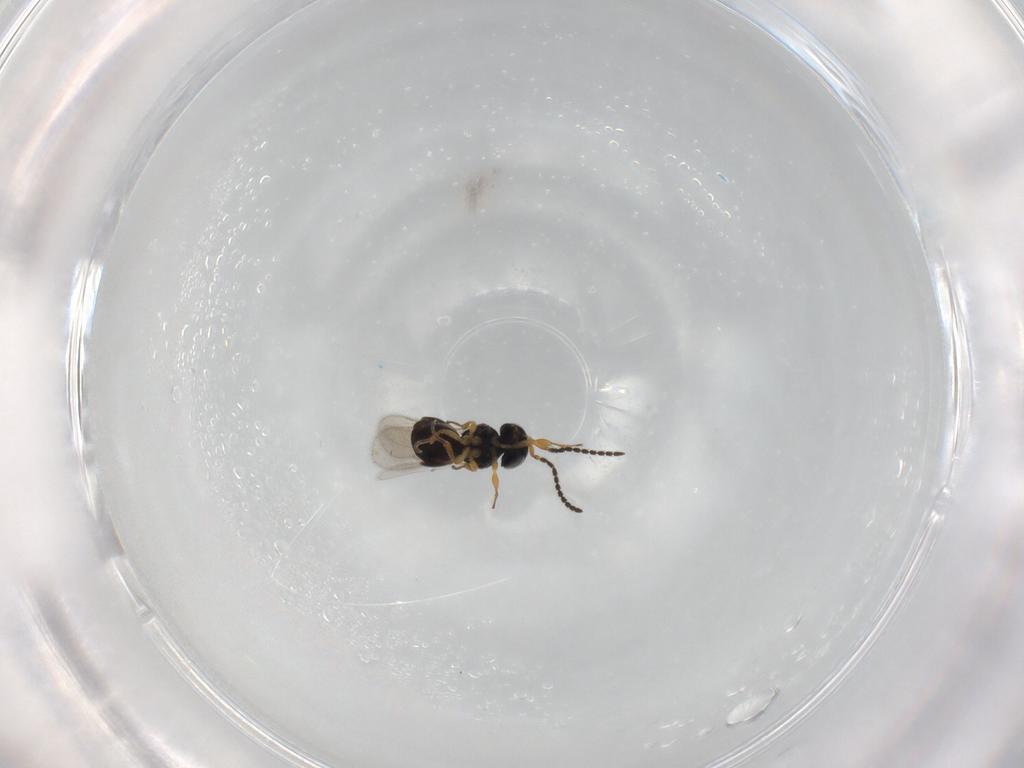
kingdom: Animalia
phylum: Arthropoda
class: Insecta
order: Hymenoptera
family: Scelionidae
